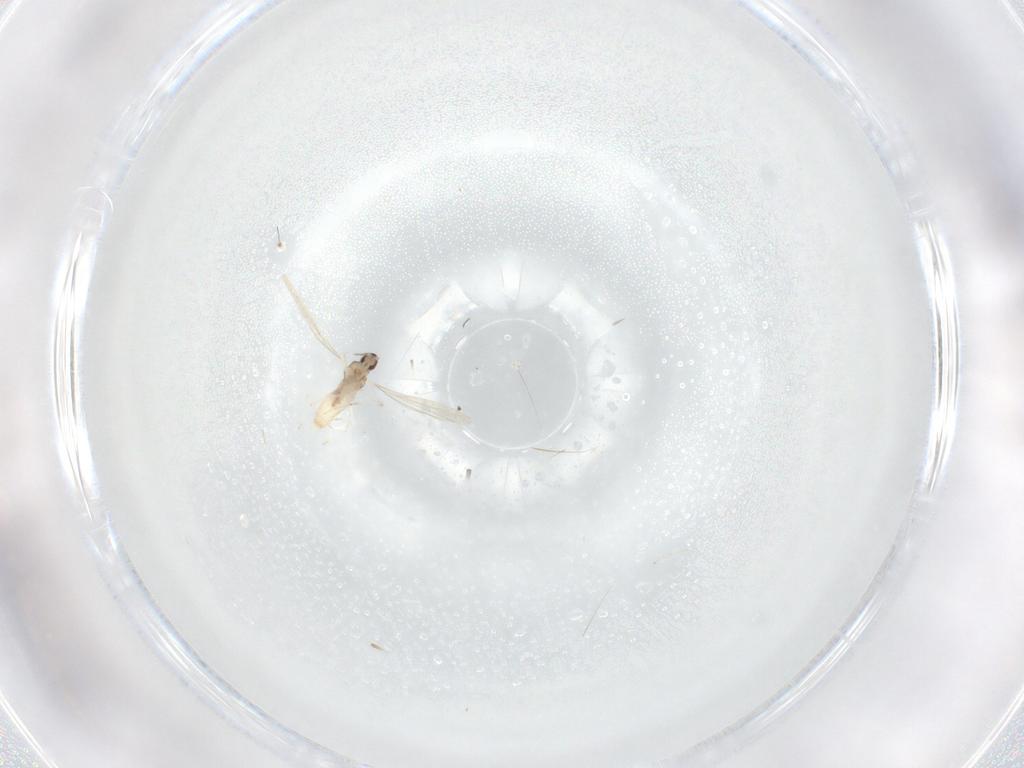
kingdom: Animalia
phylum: Arthropoda
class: Insecta
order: Diptera
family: Cecidomyiidae
